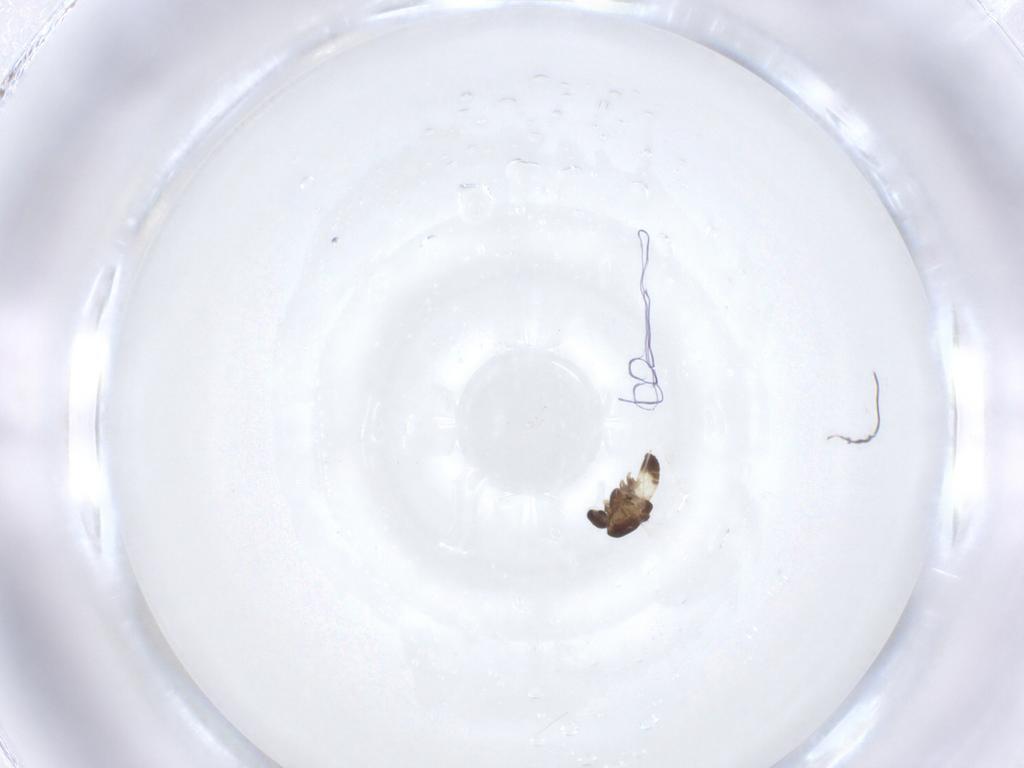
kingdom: Animalia
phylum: Arthropoda
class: Insecta
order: Diptera
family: Chironomidae
